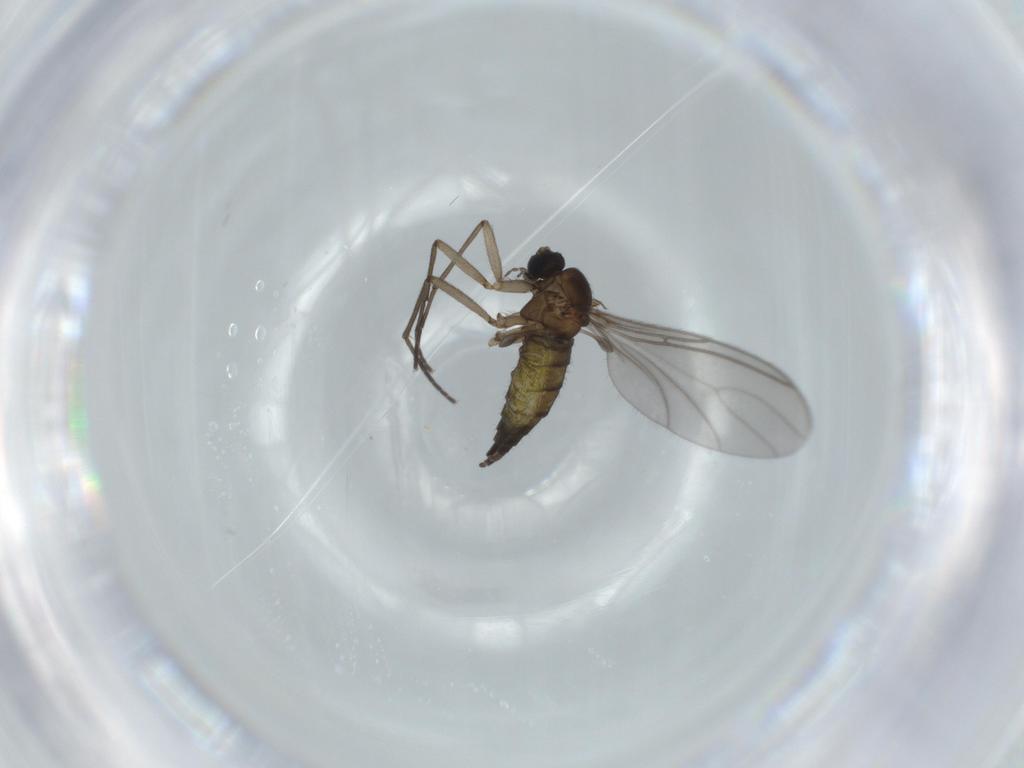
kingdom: Animalia
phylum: Arthropoda
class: Insecta
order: Diptera
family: Sciaridae
